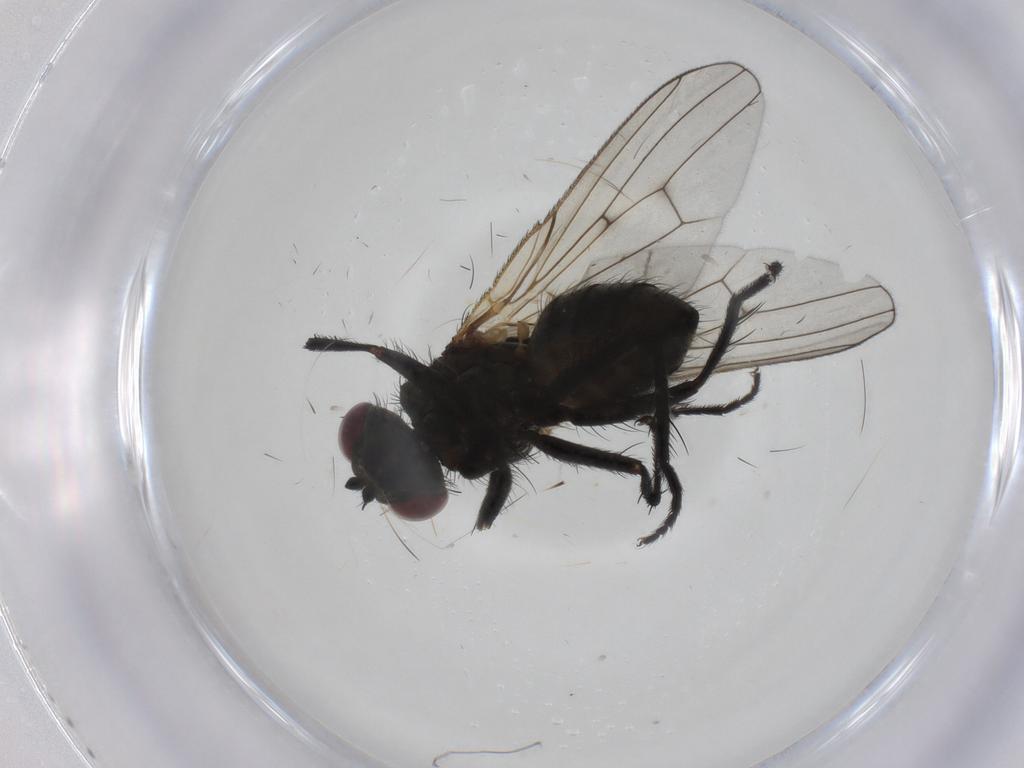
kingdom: Animalia
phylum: Arthropoda
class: Insecta
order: Diptera
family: Muscidae
